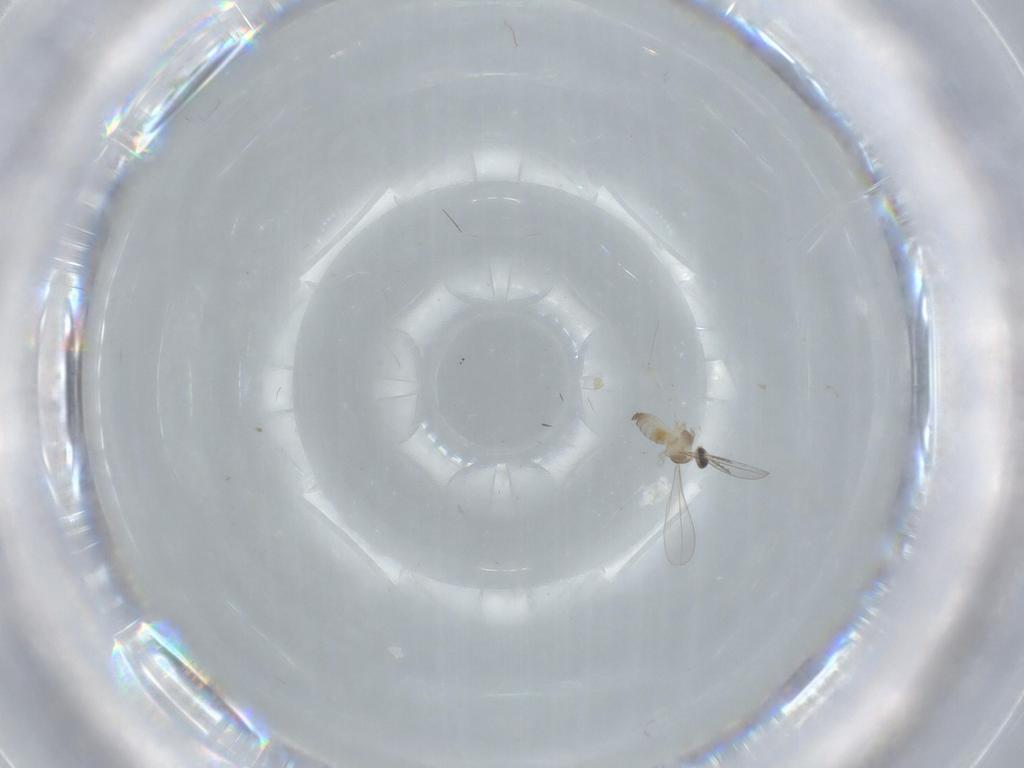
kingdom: Animalia
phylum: Arthropoda
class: Insecta
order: Diptera
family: Cecidomyiidae
